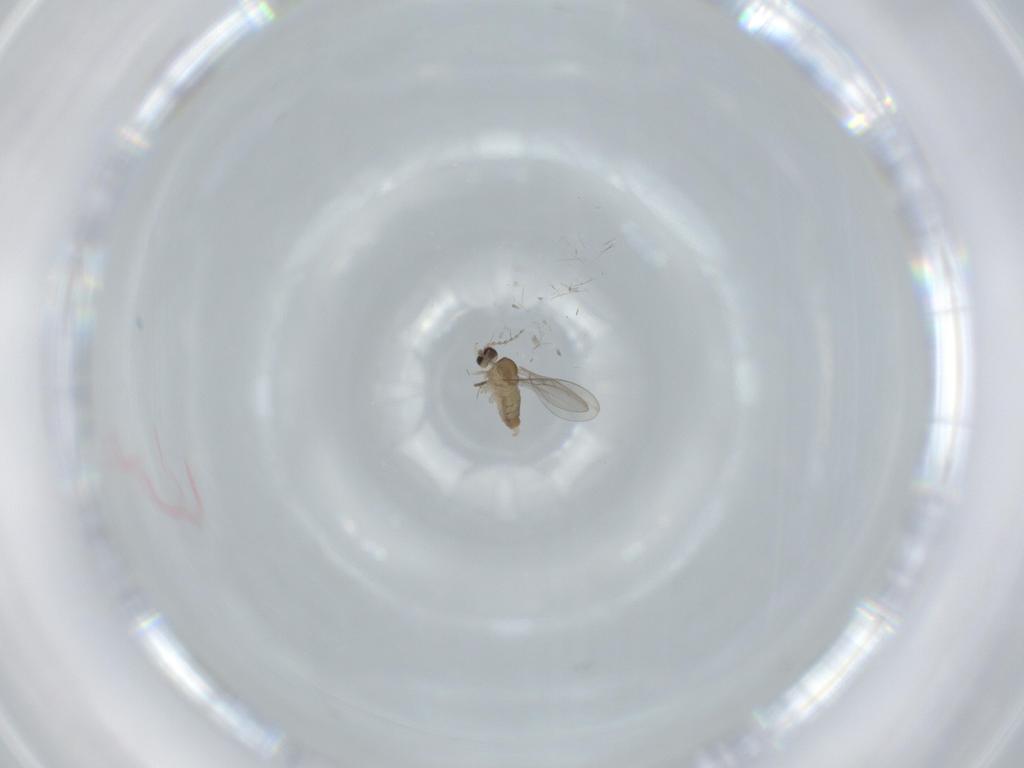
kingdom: Animalia
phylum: Arthropoda
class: Insecta
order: Diptera
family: Cecidomyiidae
